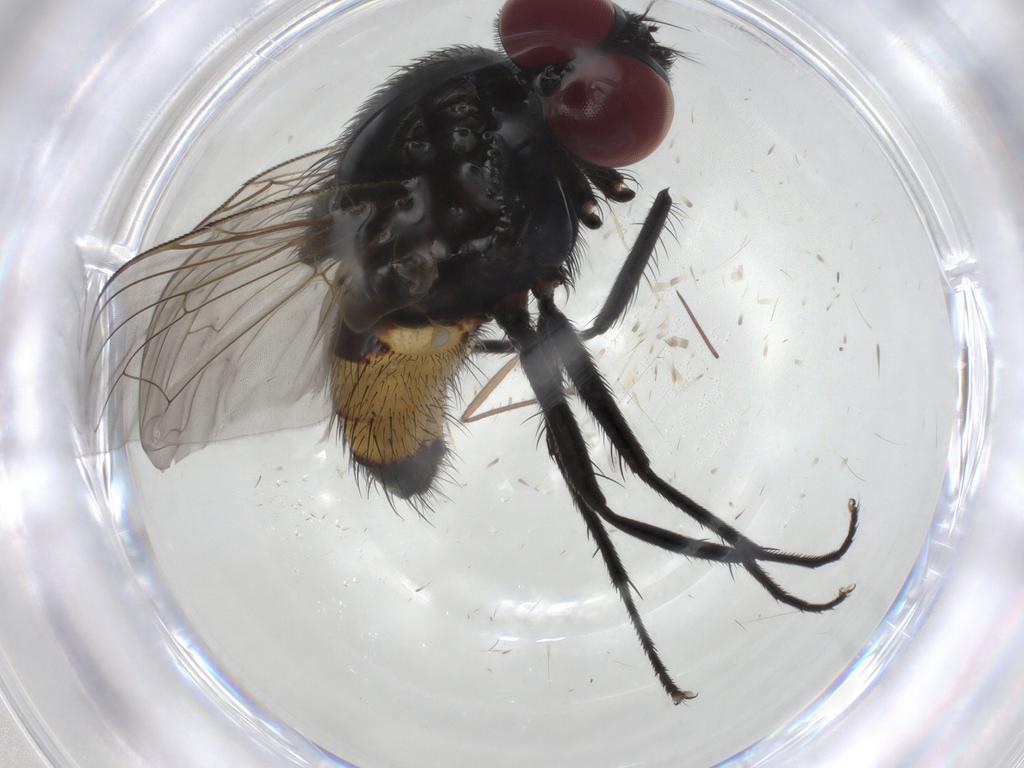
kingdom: Animalia
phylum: Arthropoda
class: Insecta
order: Diptera
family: Muscidae
